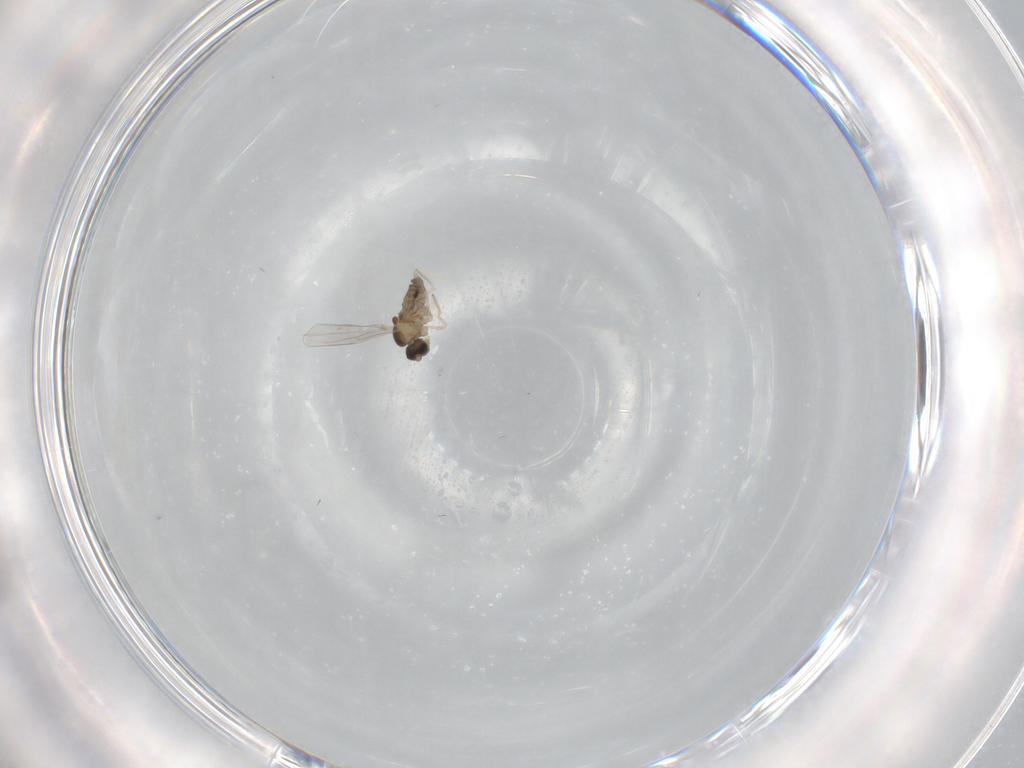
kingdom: Animalia
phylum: Arthropoda
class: Insecta
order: Diptera
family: Cecidomyiidae
